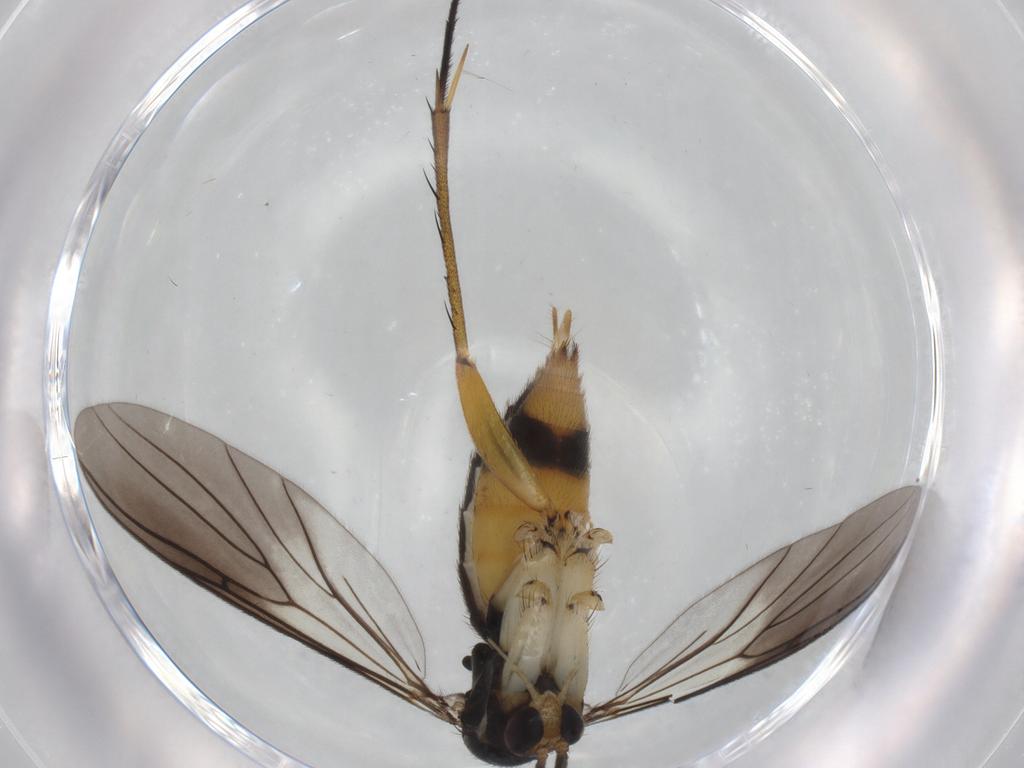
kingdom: Animalia
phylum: Arthropoda
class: Insecta
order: Diptera
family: Mycetophilidae
